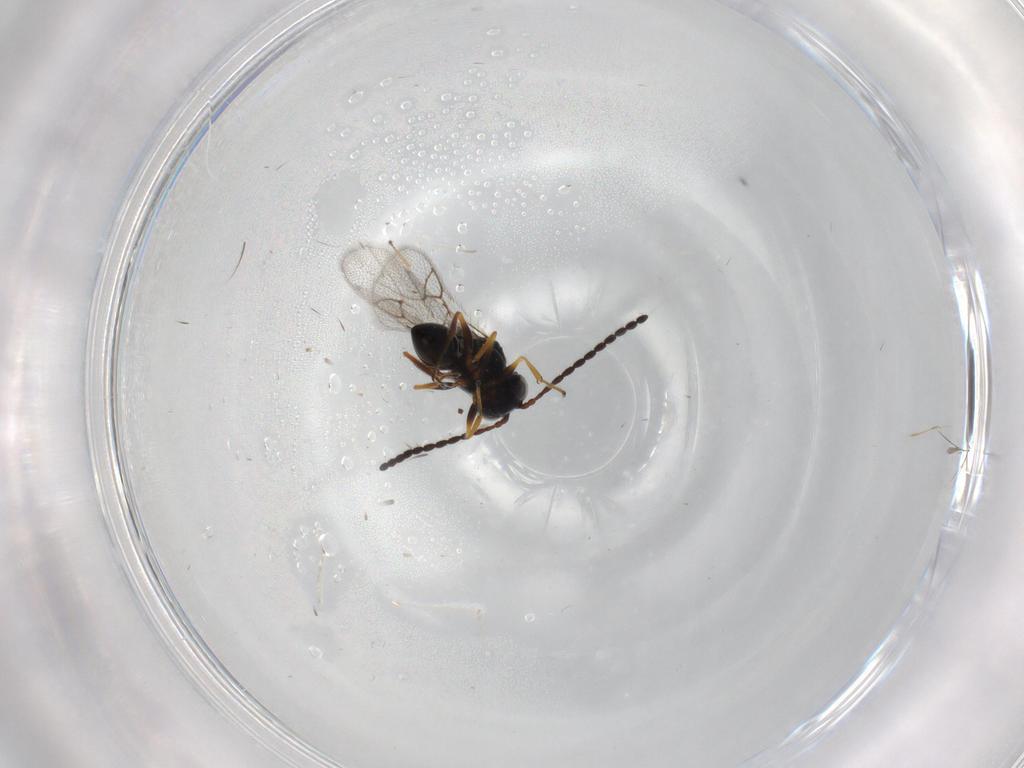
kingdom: Animalia
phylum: Arthropoda
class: Insecta
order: Hymenoptera
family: Figitidae
